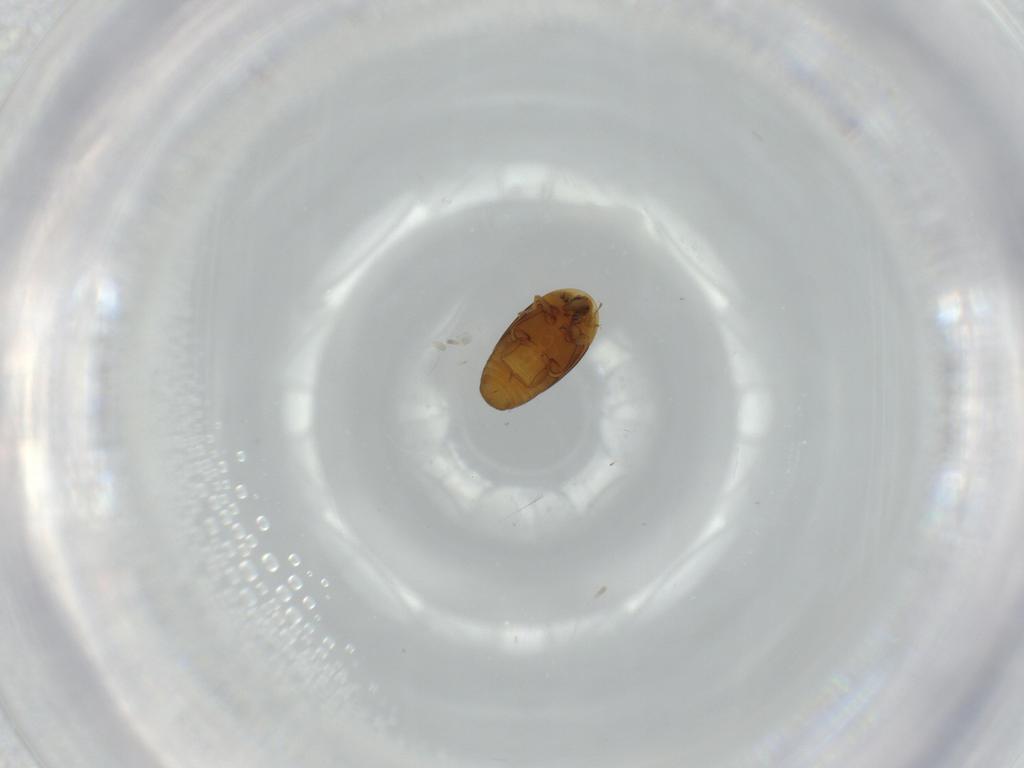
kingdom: Animalia
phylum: Arthropoda
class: Insecta
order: Coleoptera
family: Corylophidae
